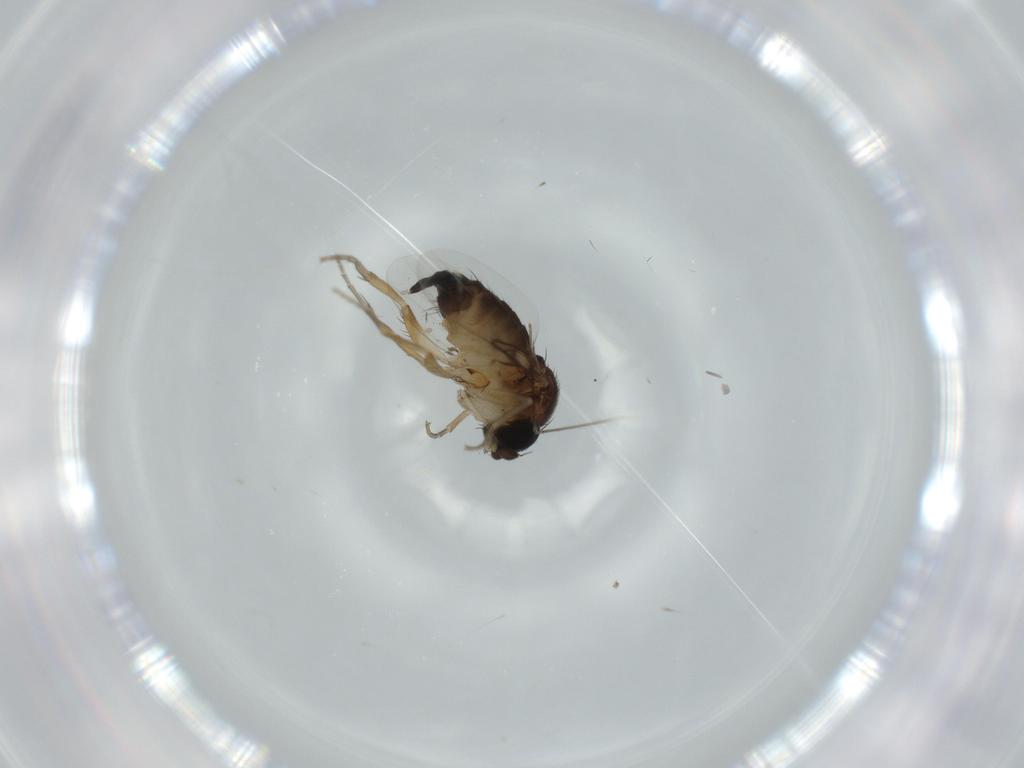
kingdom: Animalia
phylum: Arthropoda
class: Insecta
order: Diptera
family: Phoridae
